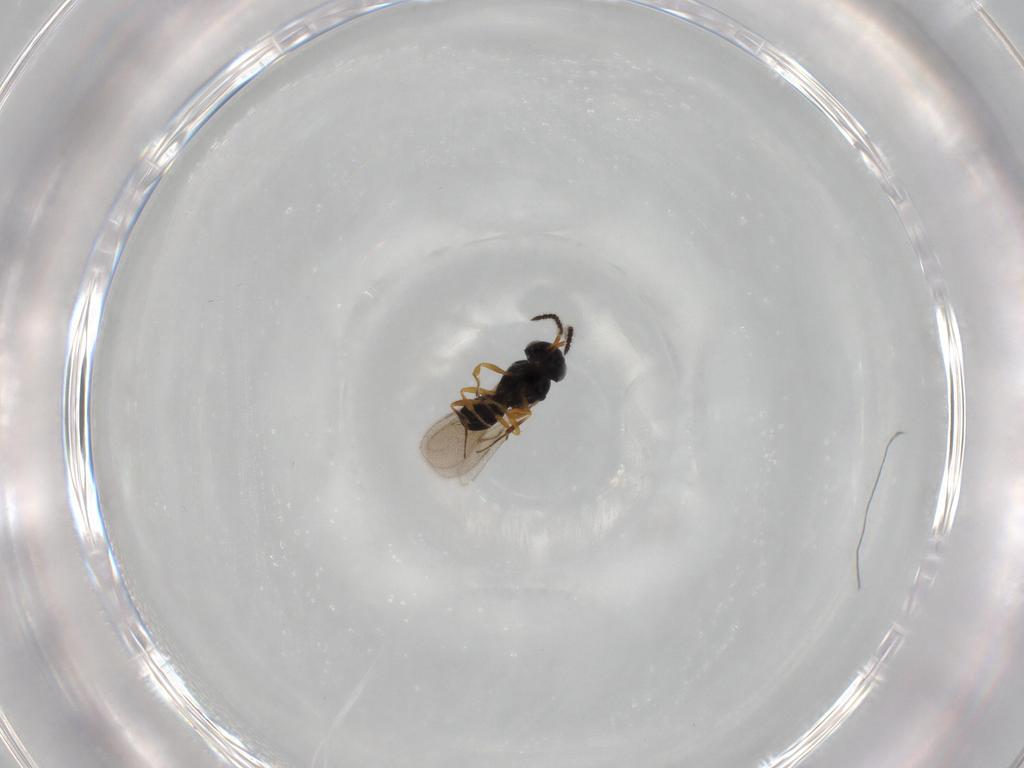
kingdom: Animalia
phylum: Arthropoda
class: Insecta
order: Hymenoptera
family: Scelionidae
